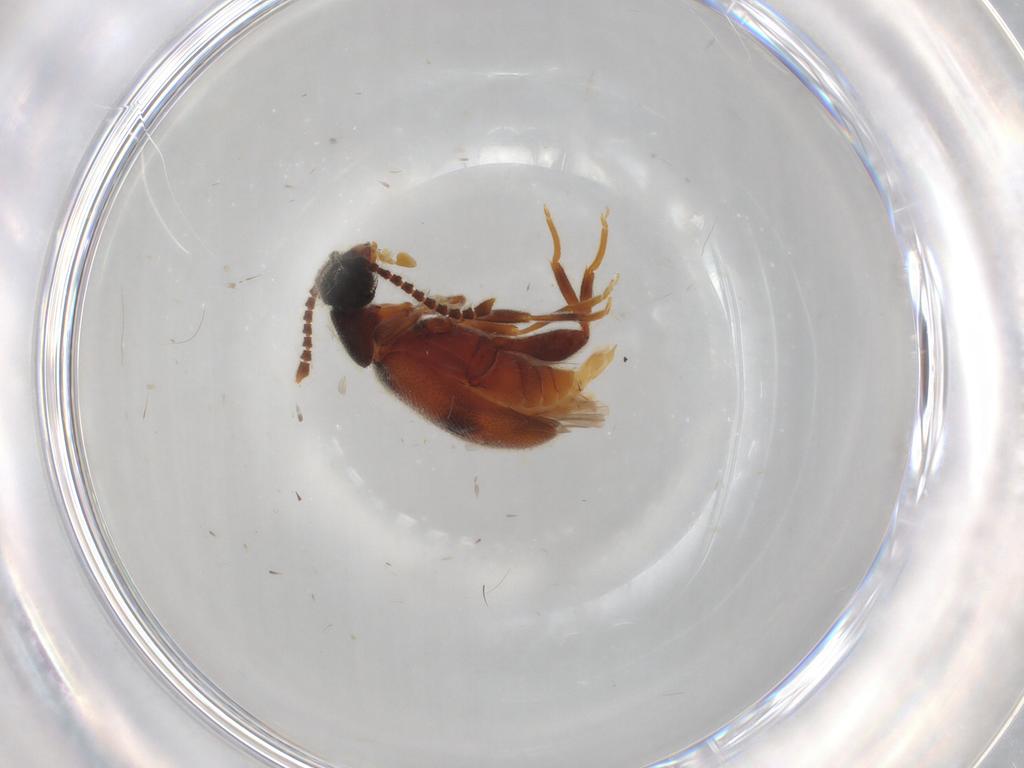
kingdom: Animalia
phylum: Arthropoda
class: Insecta
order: Coleoptera
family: Aderidae
